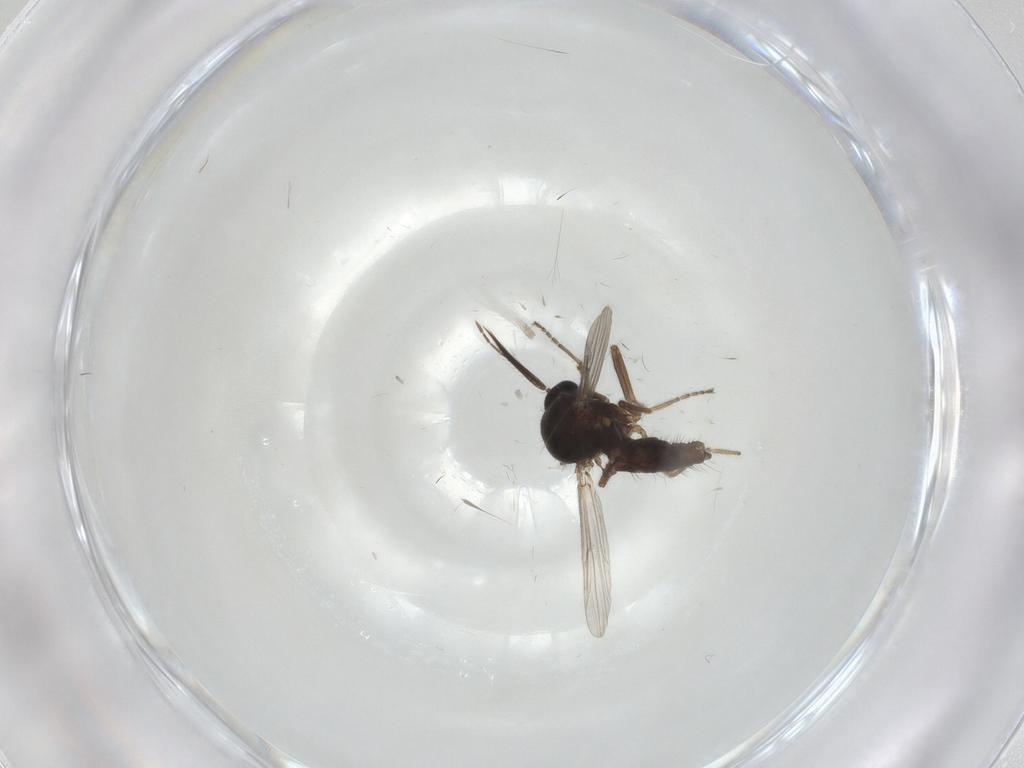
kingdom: Animalia
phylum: Arthropoda
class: Insecta
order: Diptera
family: Ceratopogonidae
